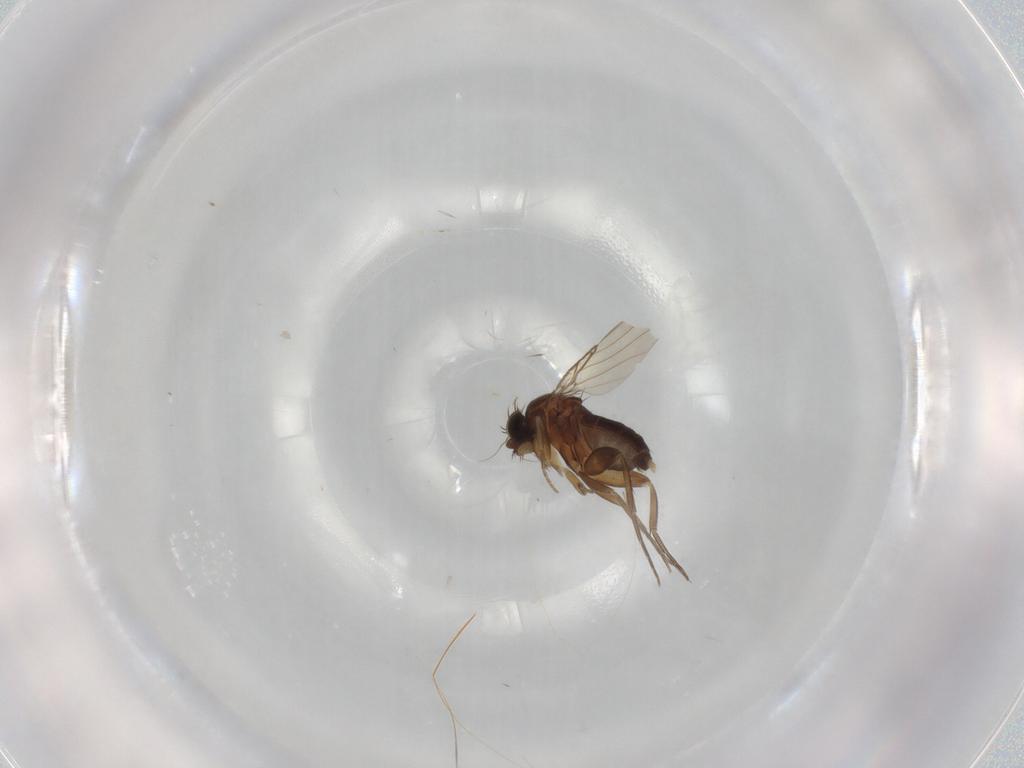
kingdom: Animalia
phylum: Arthropoda
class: Insecta
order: Diptera
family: Phoridae
